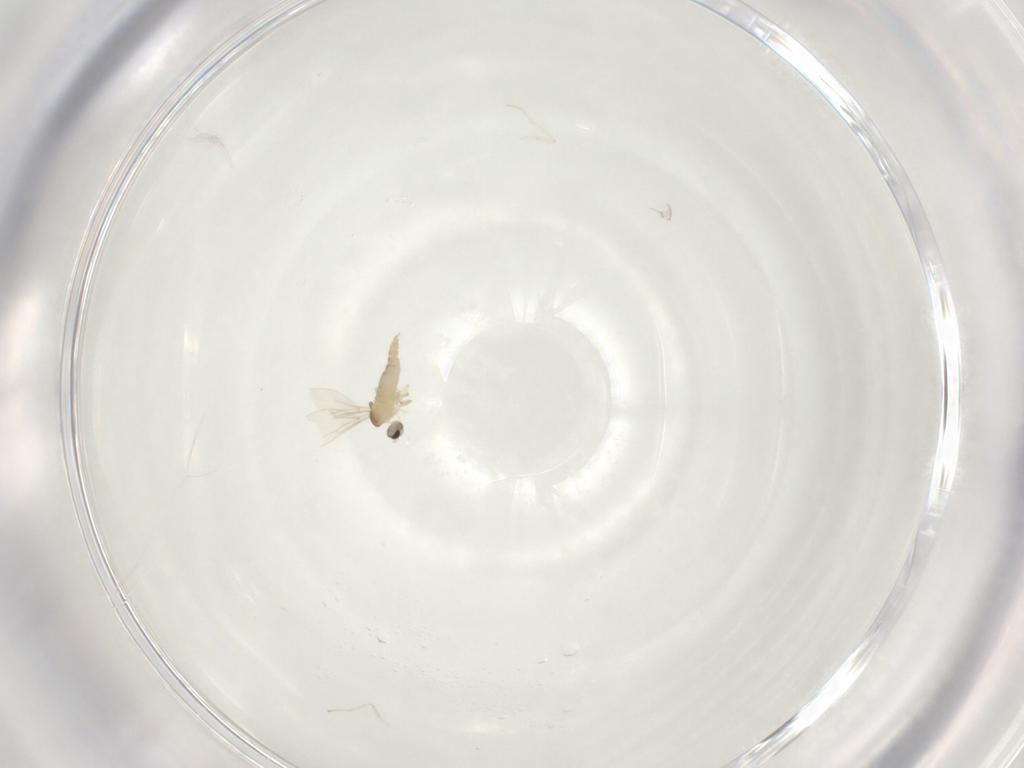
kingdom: Animalia
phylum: Arthropoda
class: Insecta
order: Diptera
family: Cecidomyiidae
